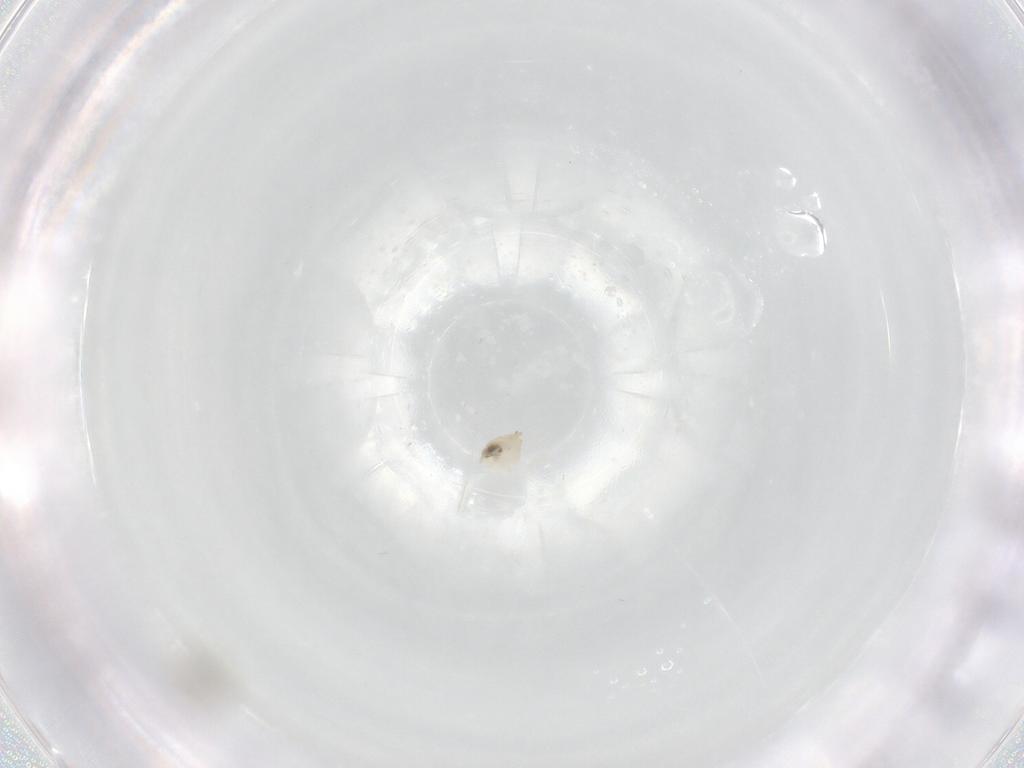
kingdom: Animalia
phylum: Arthropoda
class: Insecta
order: Diptera
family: Cecidomyiidae
